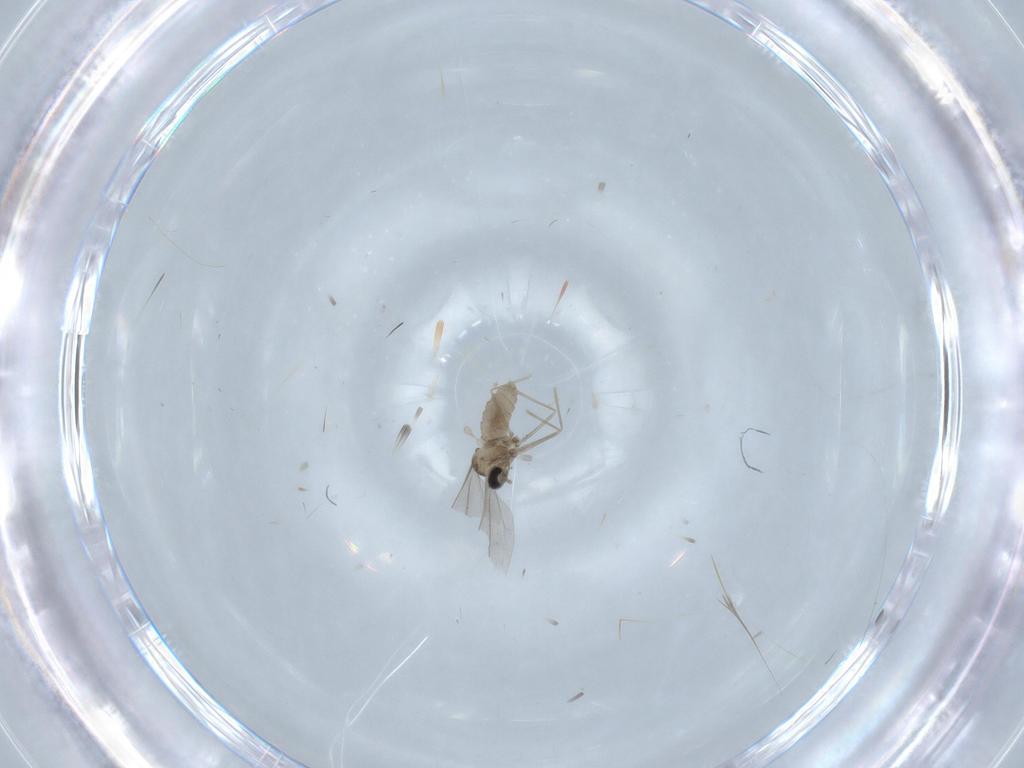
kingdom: Animalia
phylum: Arthropoda
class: Insecta
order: Diptera
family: Cecidomyiidae
